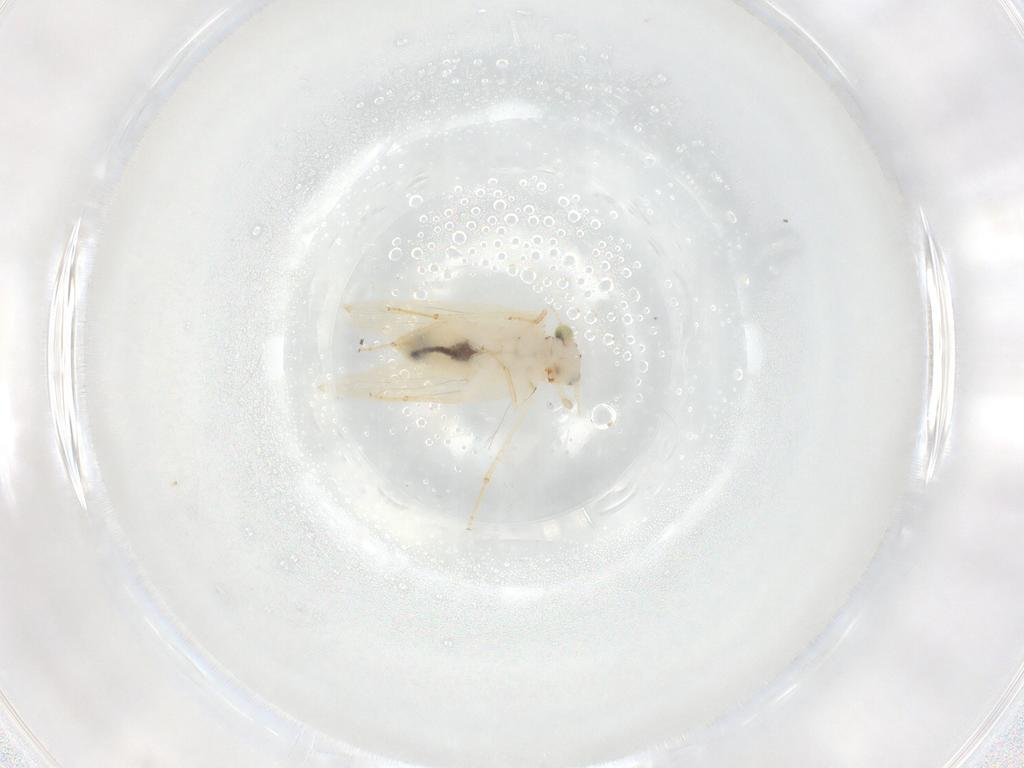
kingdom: Animalia
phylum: Arthropoda
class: Insecta
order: Psocodea
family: Lepidopsocidae
